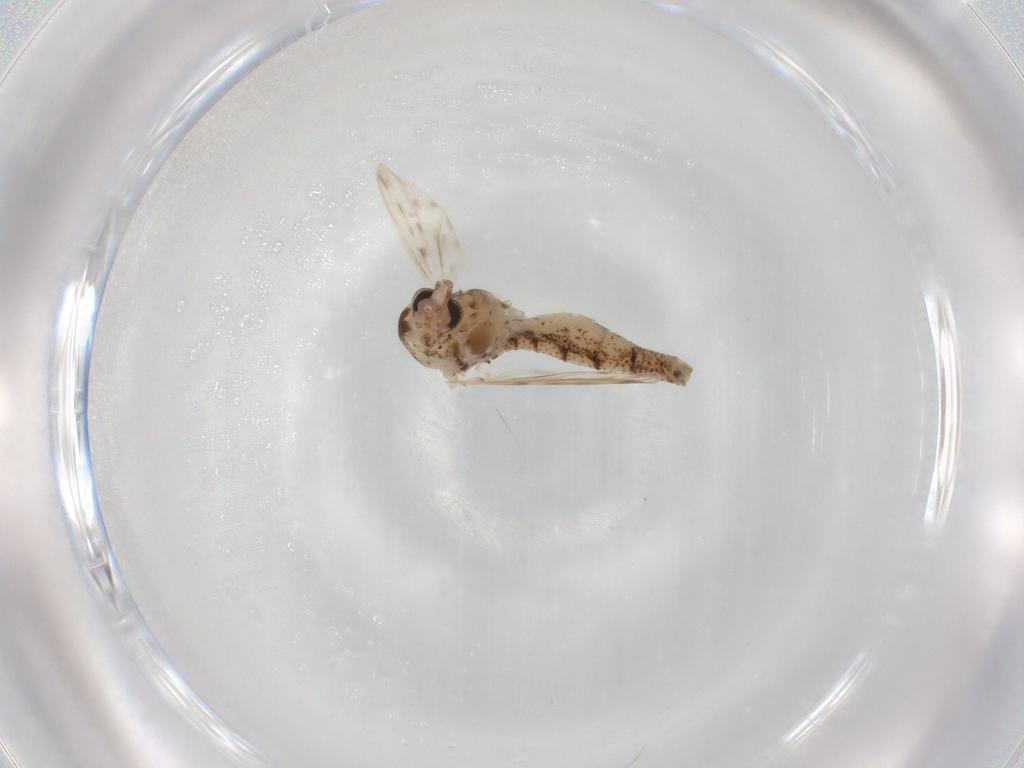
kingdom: Animalia
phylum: Arthropoda
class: Insecta
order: Diptera
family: Chaoboridae
